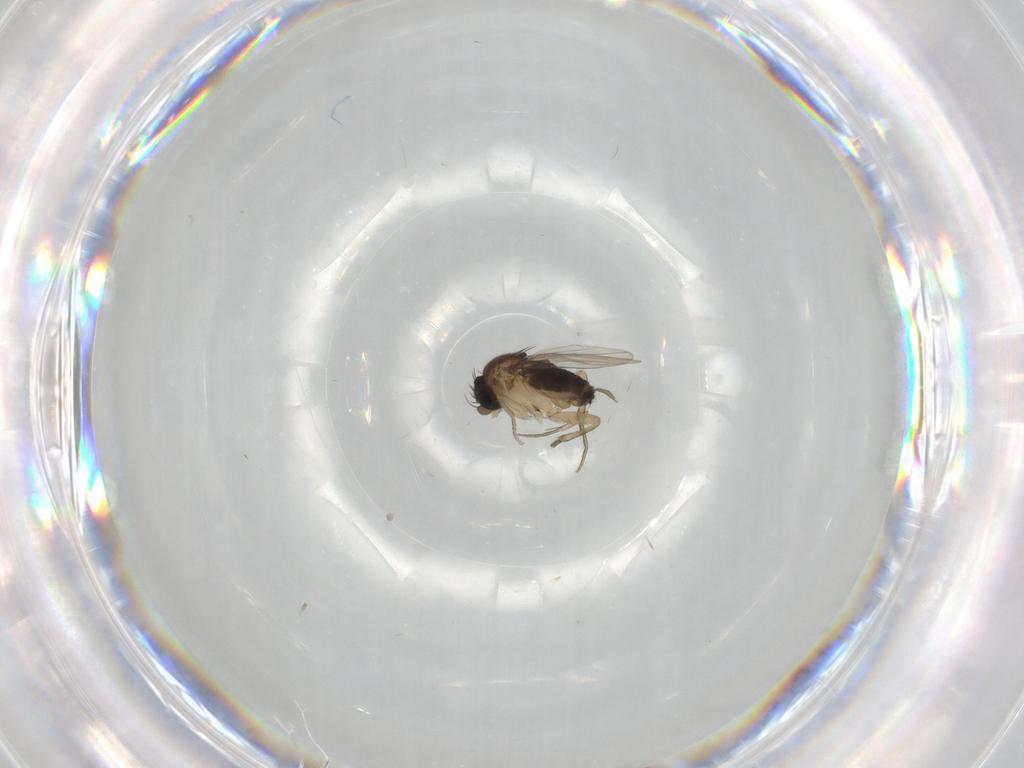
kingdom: Animalia
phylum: Arthropoda
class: Insecta
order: Diptera
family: Phoridae
